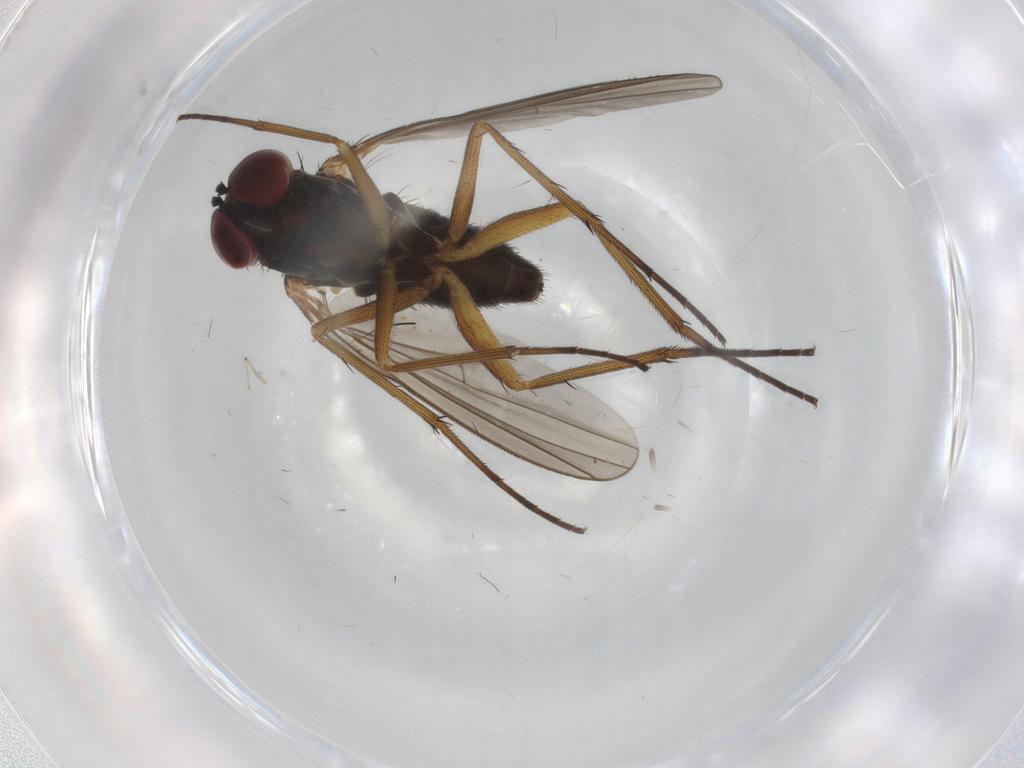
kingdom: Animalia
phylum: Arthropoda
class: Insecta
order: Diptera
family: Dolichopodidae
